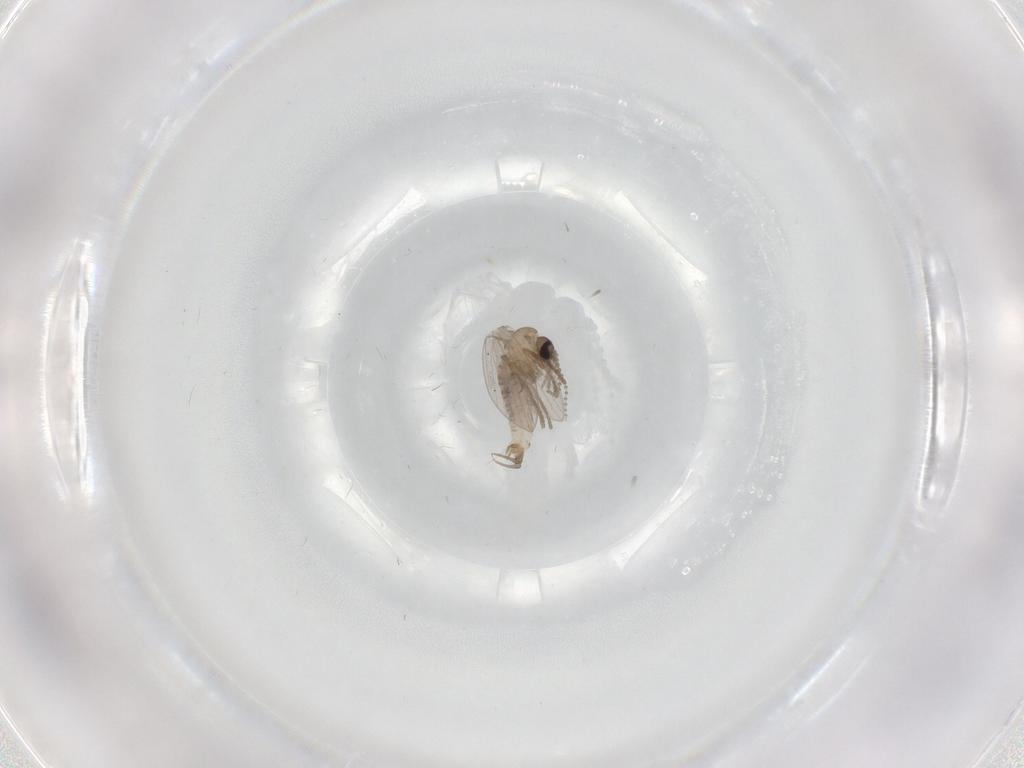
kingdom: Animalia
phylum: Arthropoda
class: Insecta
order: Diptera
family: Psychodidae
